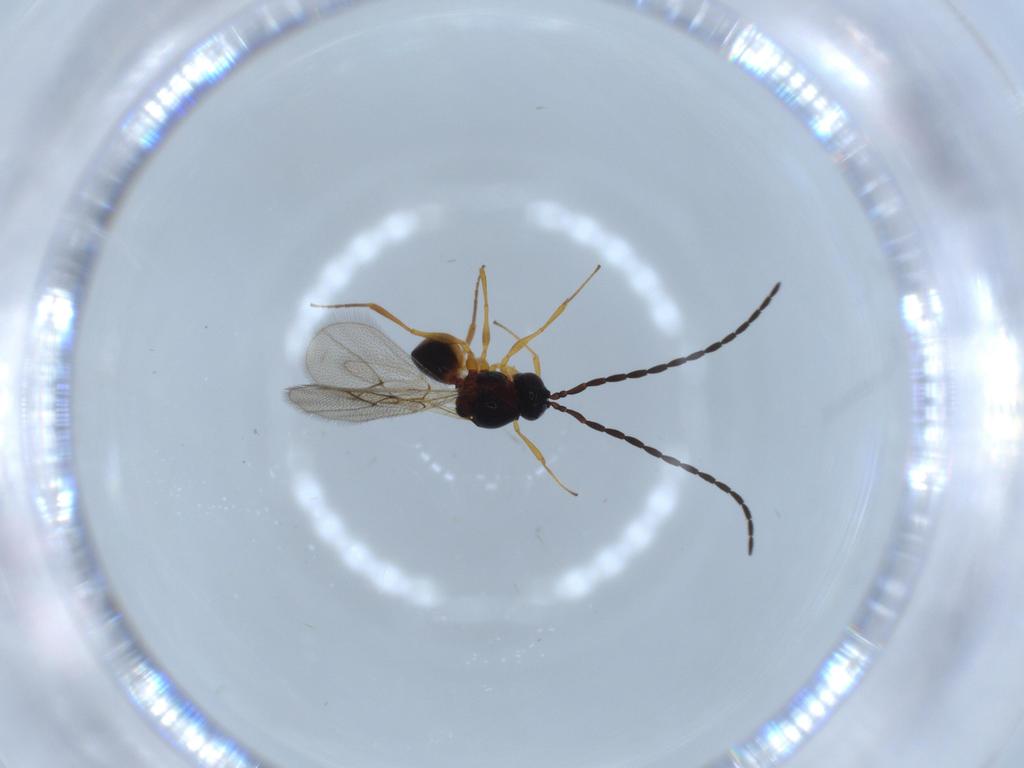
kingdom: Animalia
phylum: Arthropoda
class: Insecta
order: Hymenoptera
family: Figitidae
